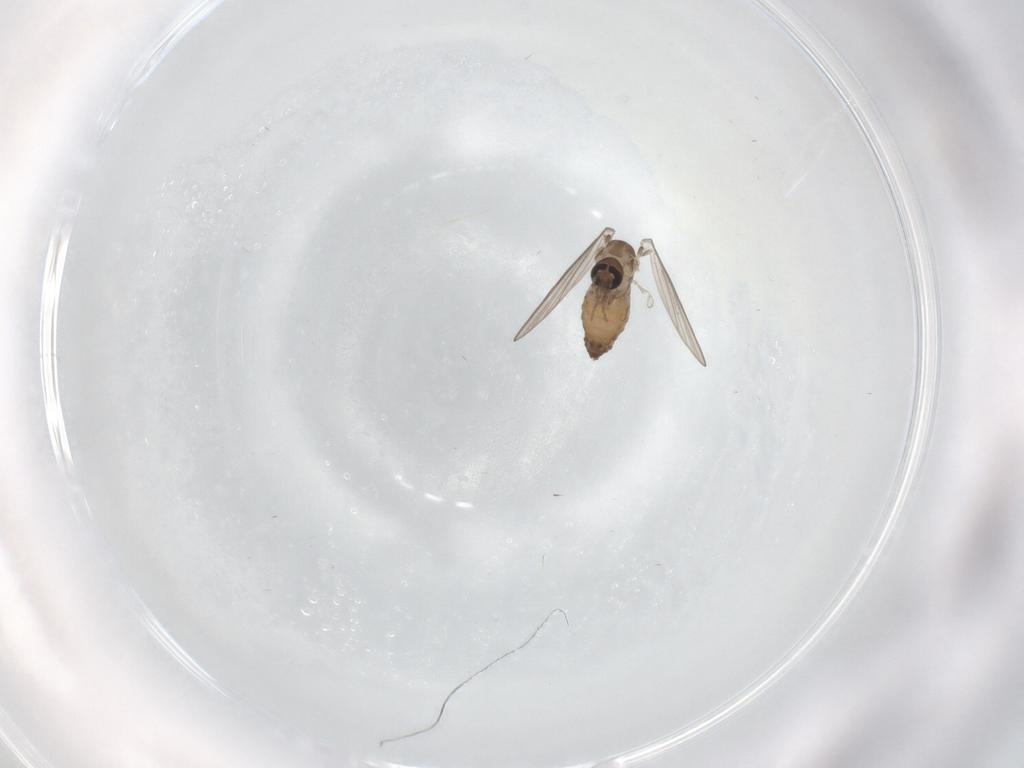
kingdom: Animalia
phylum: Arthropoda
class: Insecta
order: Diptera
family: Psychodidae
